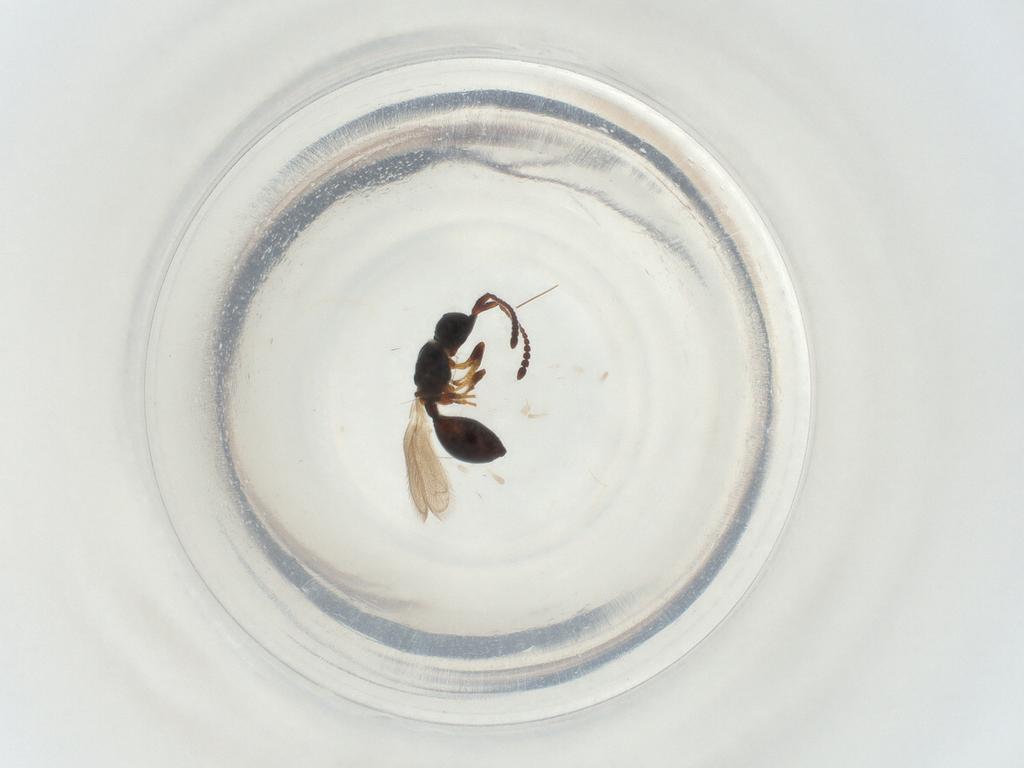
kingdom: Animalia
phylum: Arthropoda
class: Insecta
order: Hymenoptera
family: Diapriidae
